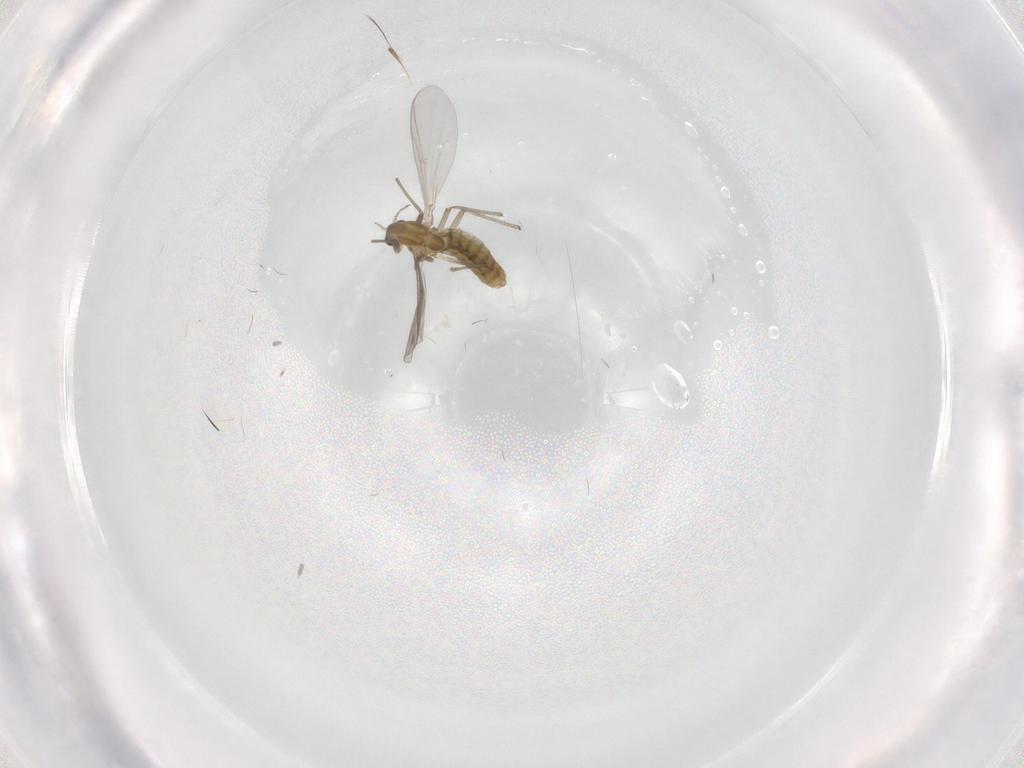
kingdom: Animalia
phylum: Arthropoda
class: Insecta
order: Diptera
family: Chironomidae
